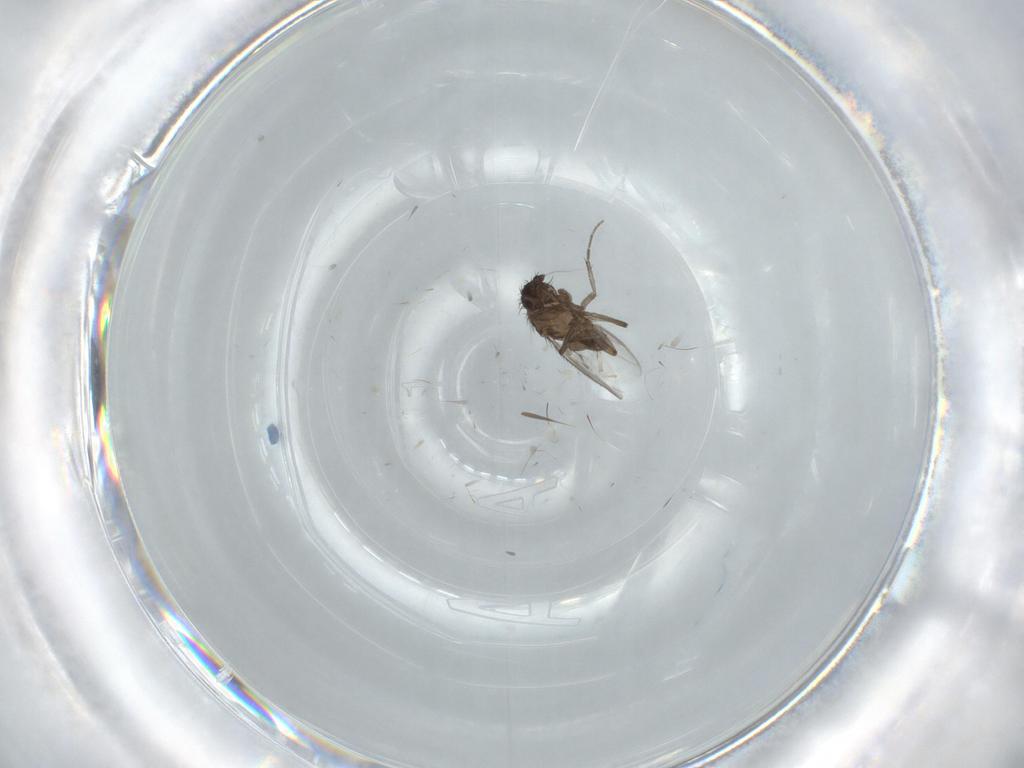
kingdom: Animalia
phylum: Arthropoda
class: Insecta
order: Diptera
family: Sphaeroceridae
